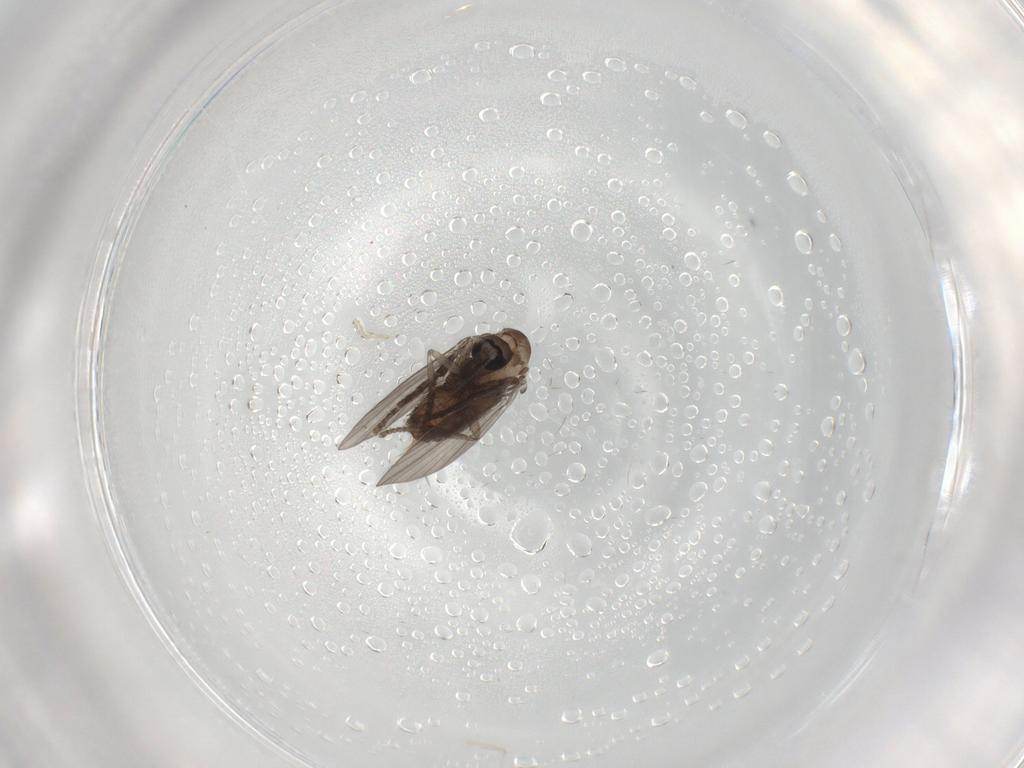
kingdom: Animalia
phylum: Arthropoda
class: Insecta
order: Diptera
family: Psychodidae
